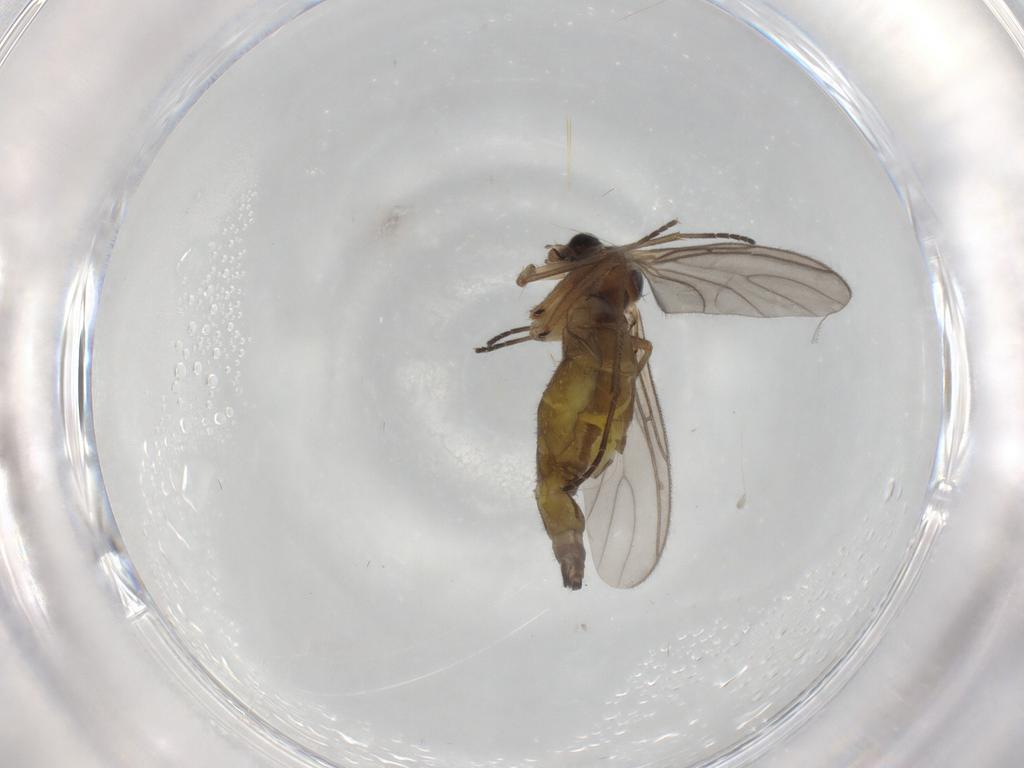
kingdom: Animalia
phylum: Arthropoda
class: Insecta
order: Diptera
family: Sciaridae
